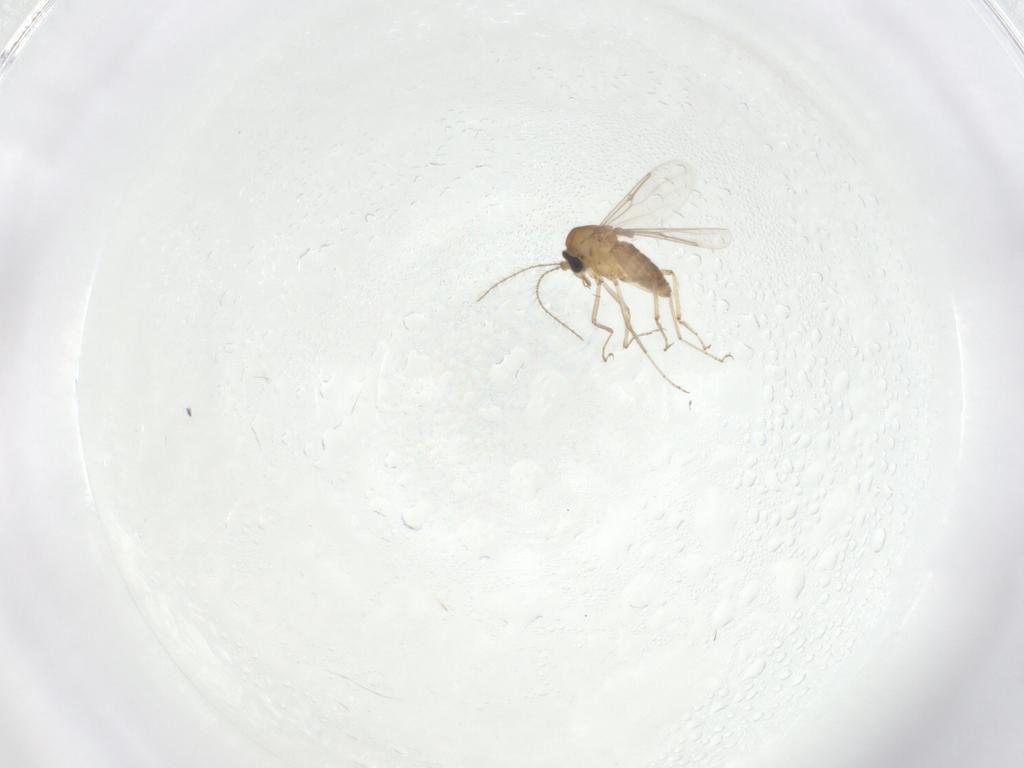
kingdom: Animalia
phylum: Arthropoda
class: Insecta
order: Diptera
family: Ceratopogonidae
